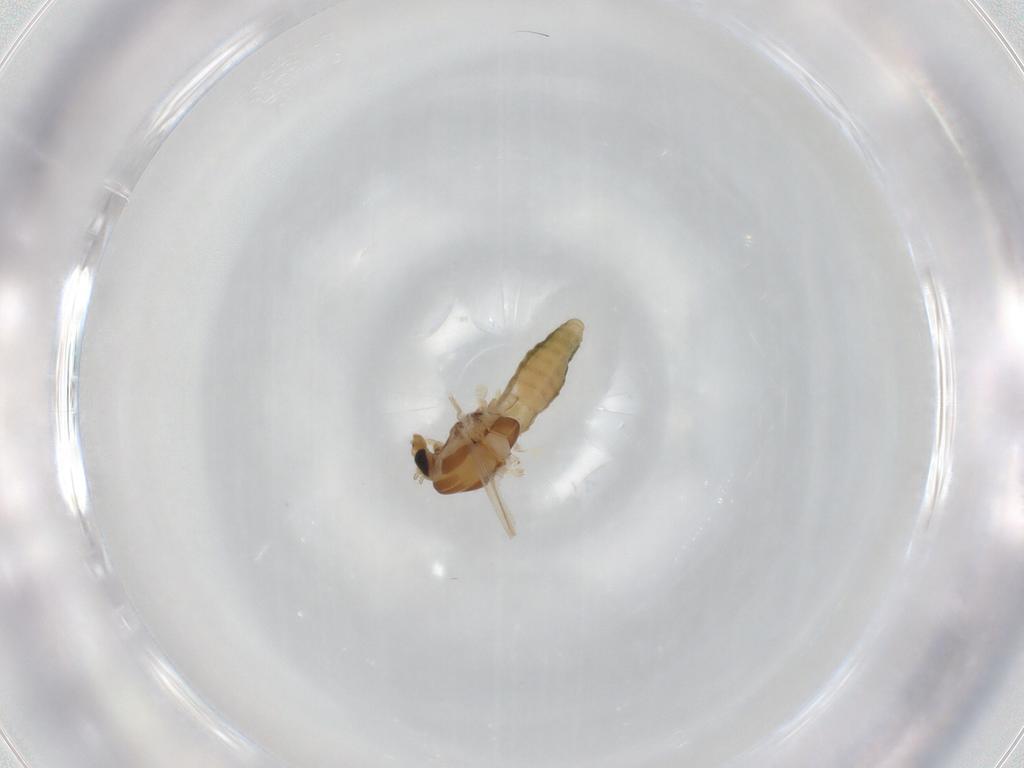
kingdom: Animalia
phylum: Arthropoda
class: Insecta
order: Diptera
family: Chironomidae
